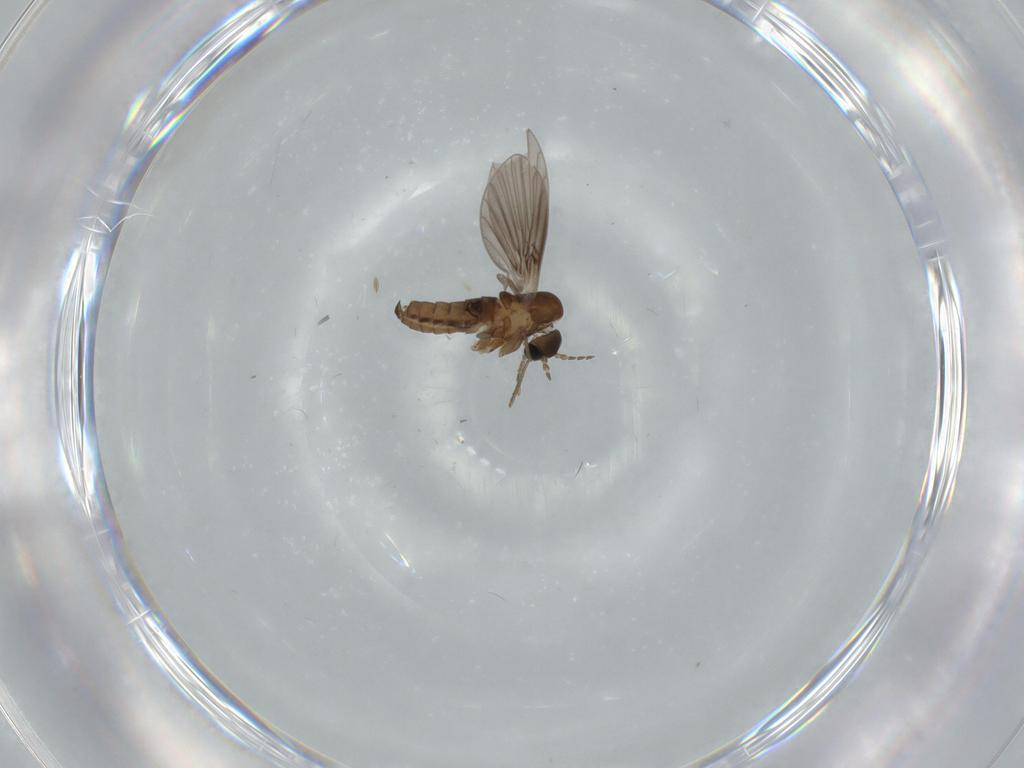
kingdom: Animalia
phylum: Arthropoda
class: Insecta
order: Diptera
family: Psychodidae
